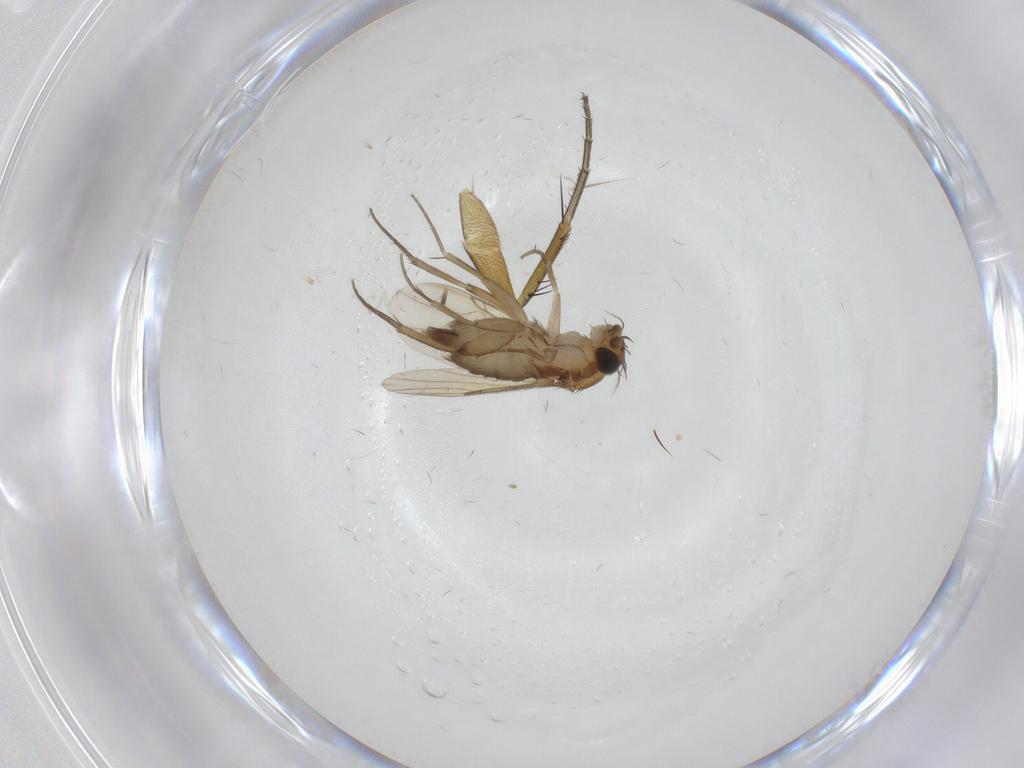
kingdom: Animalia
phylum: Arthropoda
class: Insecta
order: Diptera
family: Phoridae
